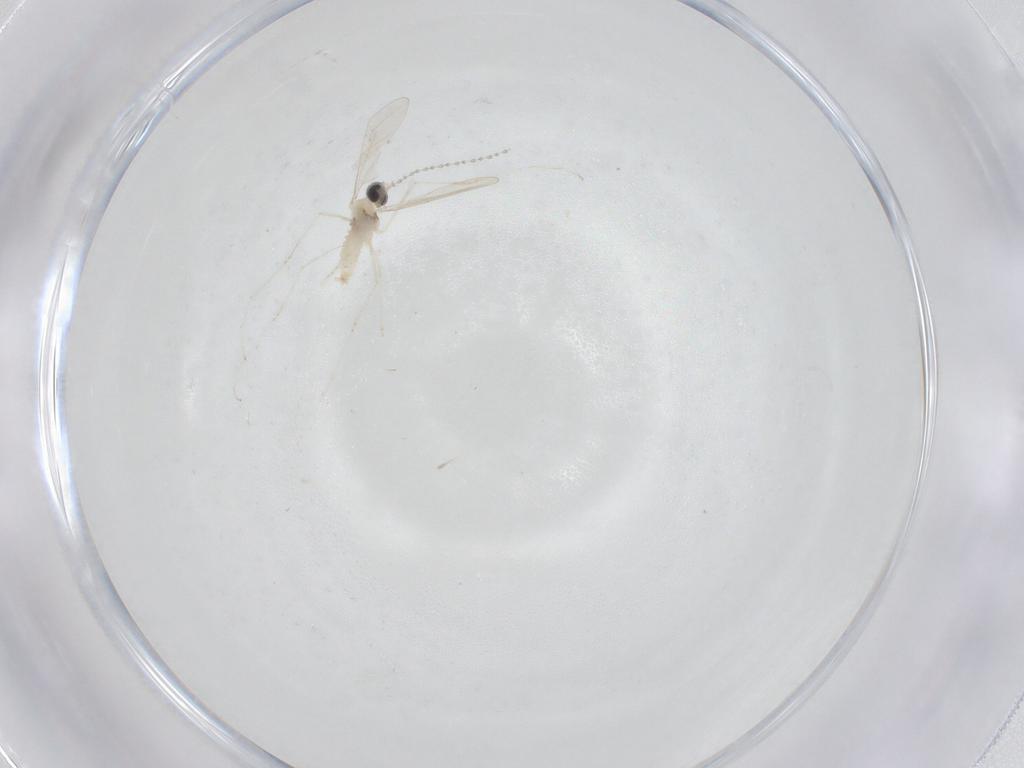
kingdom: Animalia
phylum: Arthropoda
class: Insecta
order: Diptera
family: Cecidomyiidae
